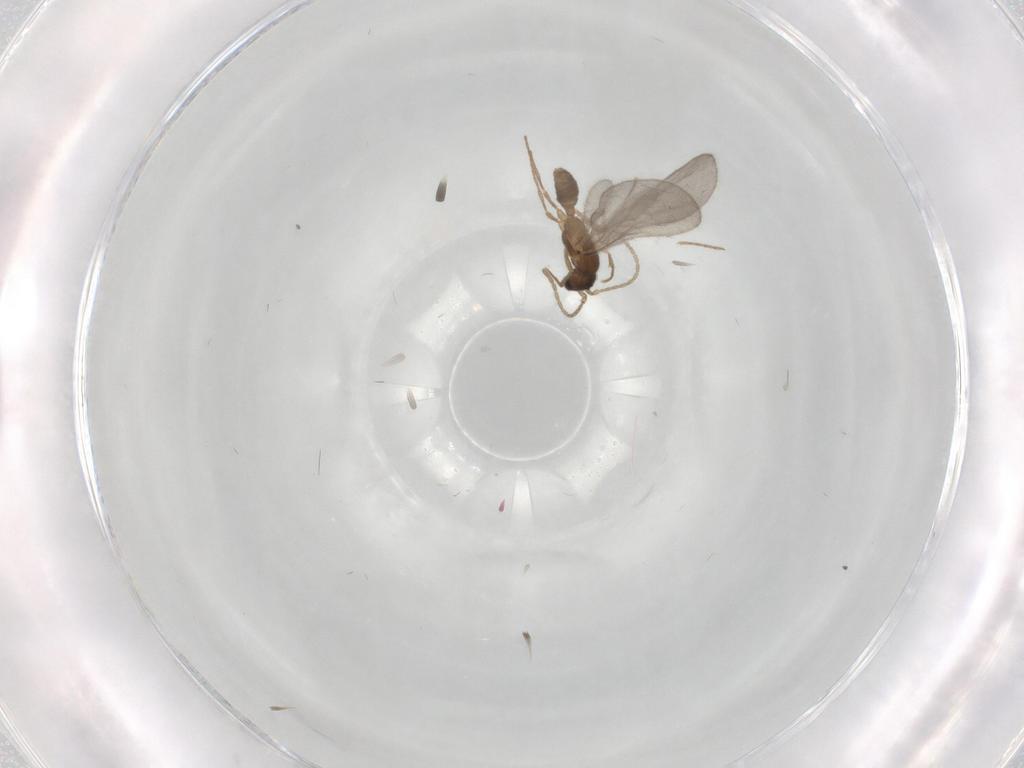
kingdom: Animalia
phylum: Arthropoda
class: Insecta
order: Hymenoptera
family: Formicidae
